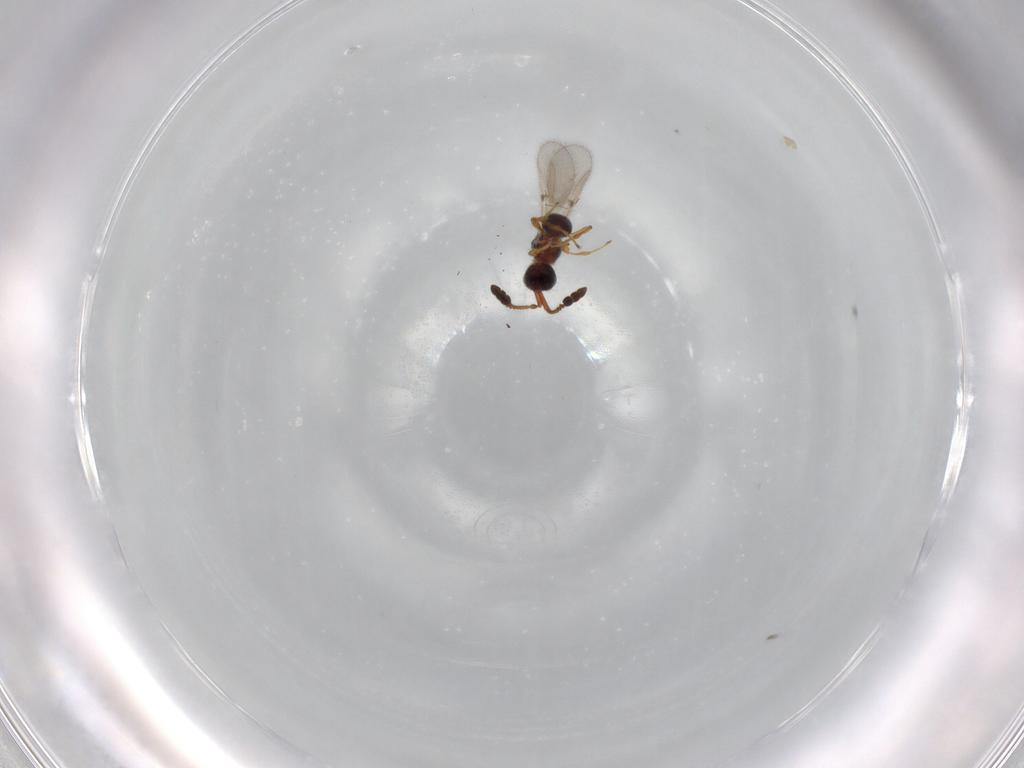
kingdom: Animalia
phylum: Arthropoda
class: Insecta
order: Hymenoptera
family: Diapriidae
